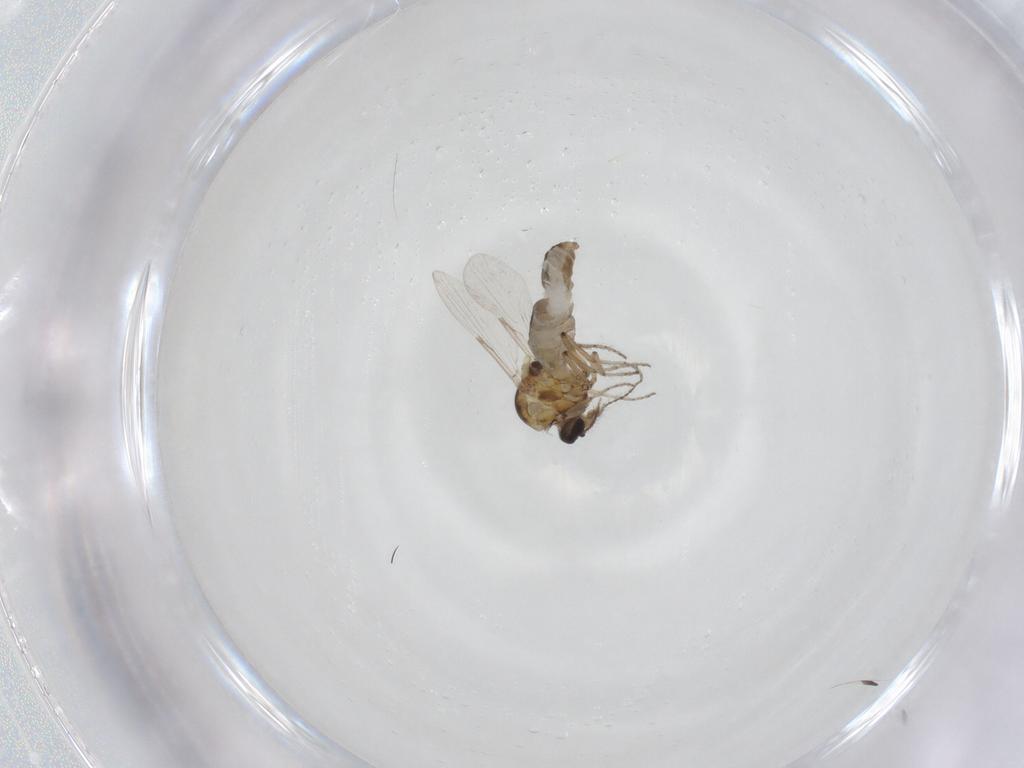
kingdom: Animalia
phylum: Arthropoda
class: Insecta
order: Diptera
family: Ceratopogonidae
